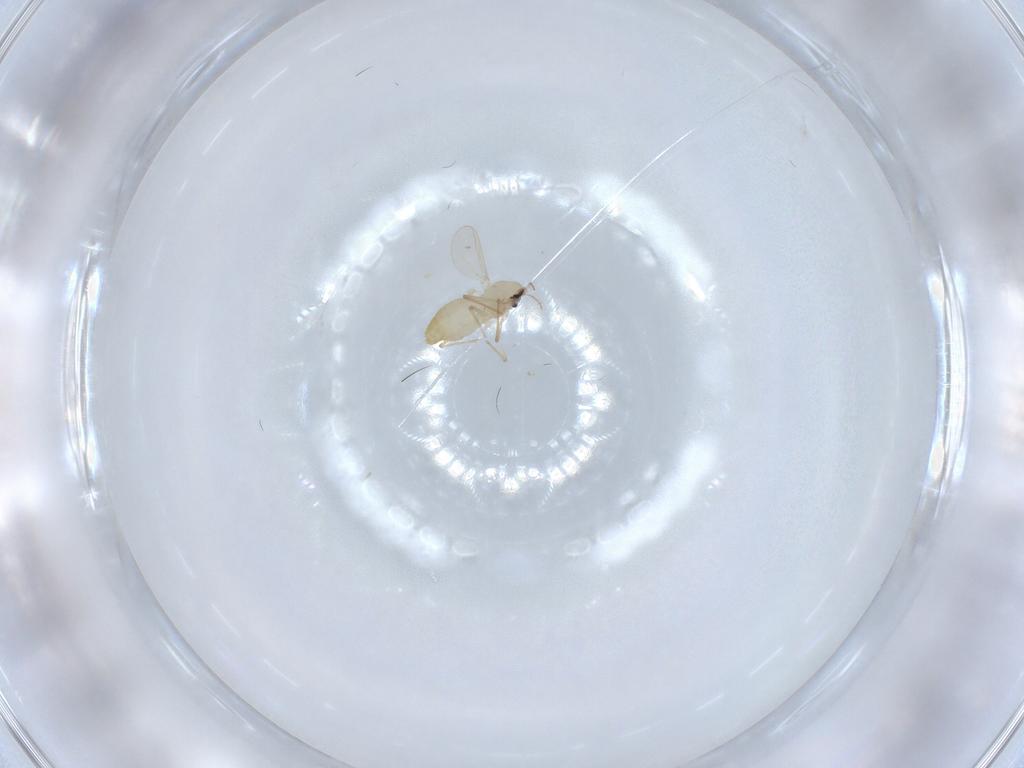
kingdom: Animalia
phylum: Arthropoda
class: Insecta
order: Diptera
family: Chironomidae
